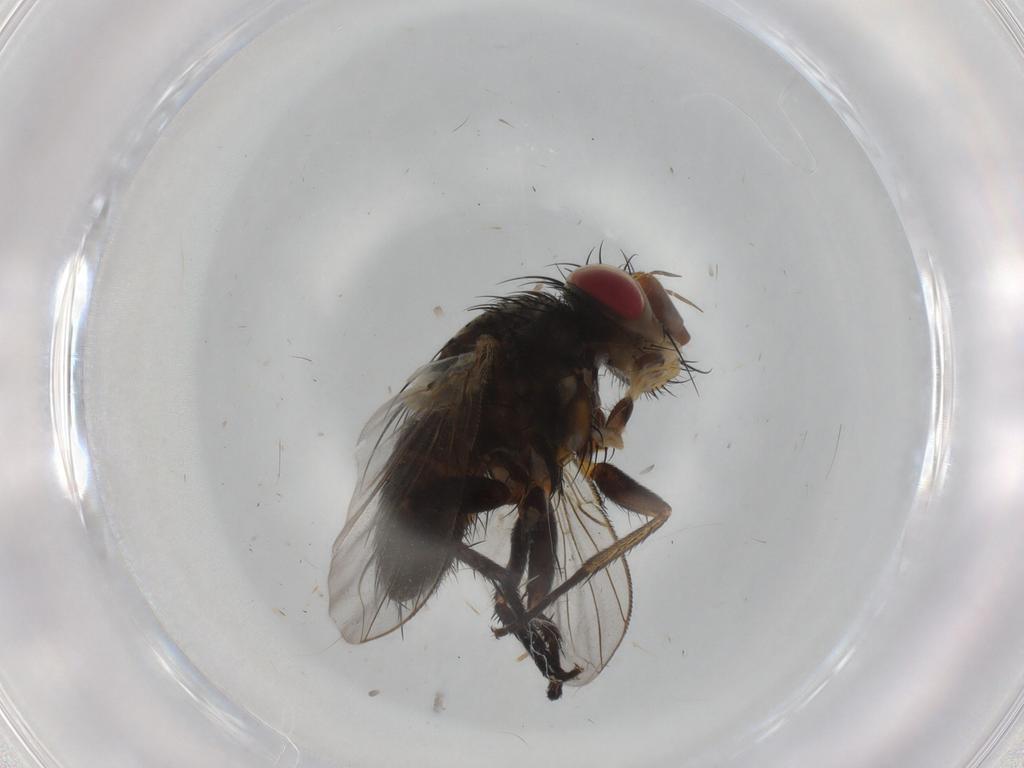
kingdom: Animalia
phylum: Arthropoda
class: Insecta
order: Diptera
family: Cecidomyiidae
